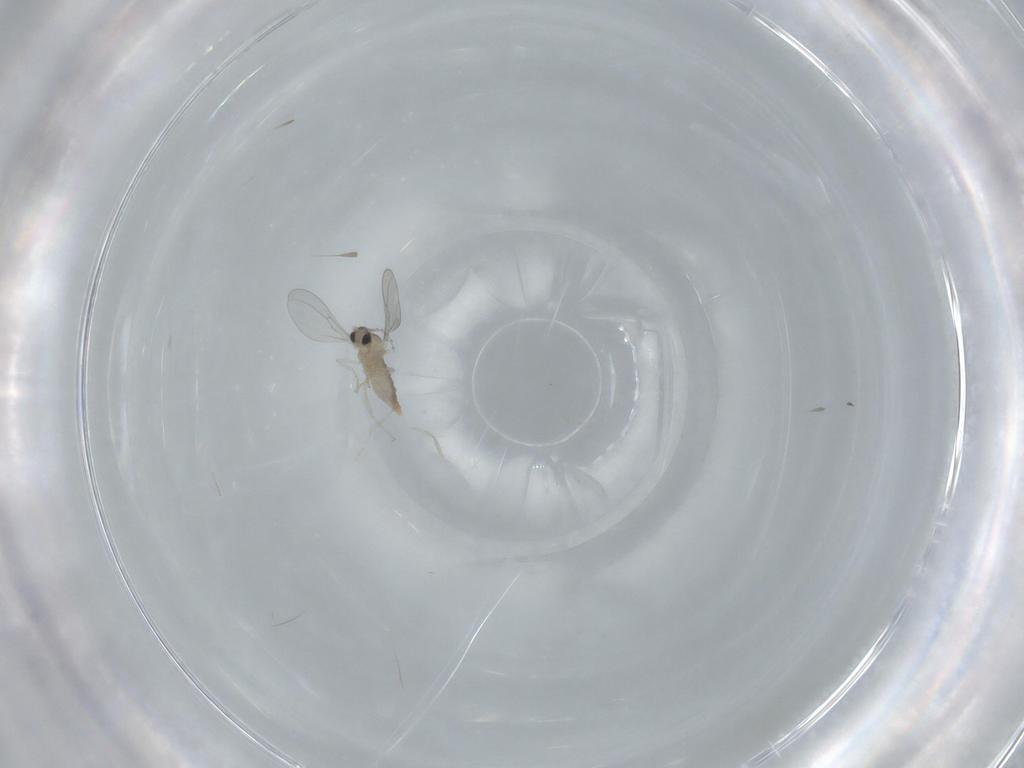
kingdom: Animalia
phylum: Arthropoda
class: Insecta
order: Diptera
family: Cecidomyiidae
